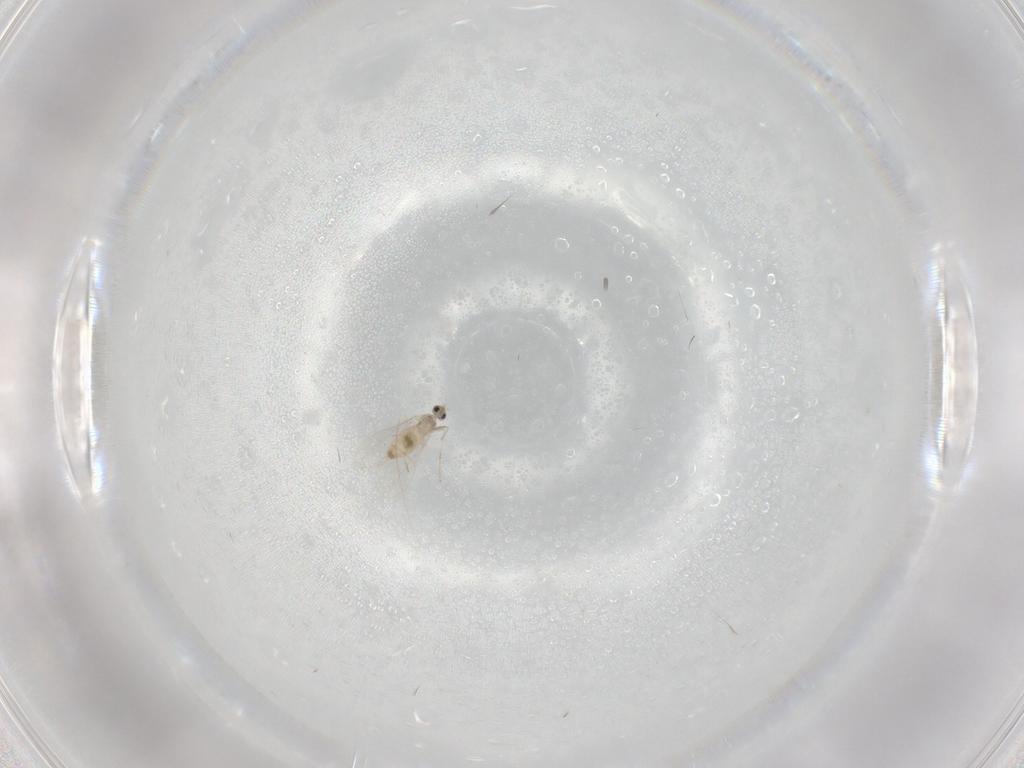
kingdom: Animalia
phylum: Arthropoda
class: Insecta
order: Diptera
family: Cecidomyiidae
